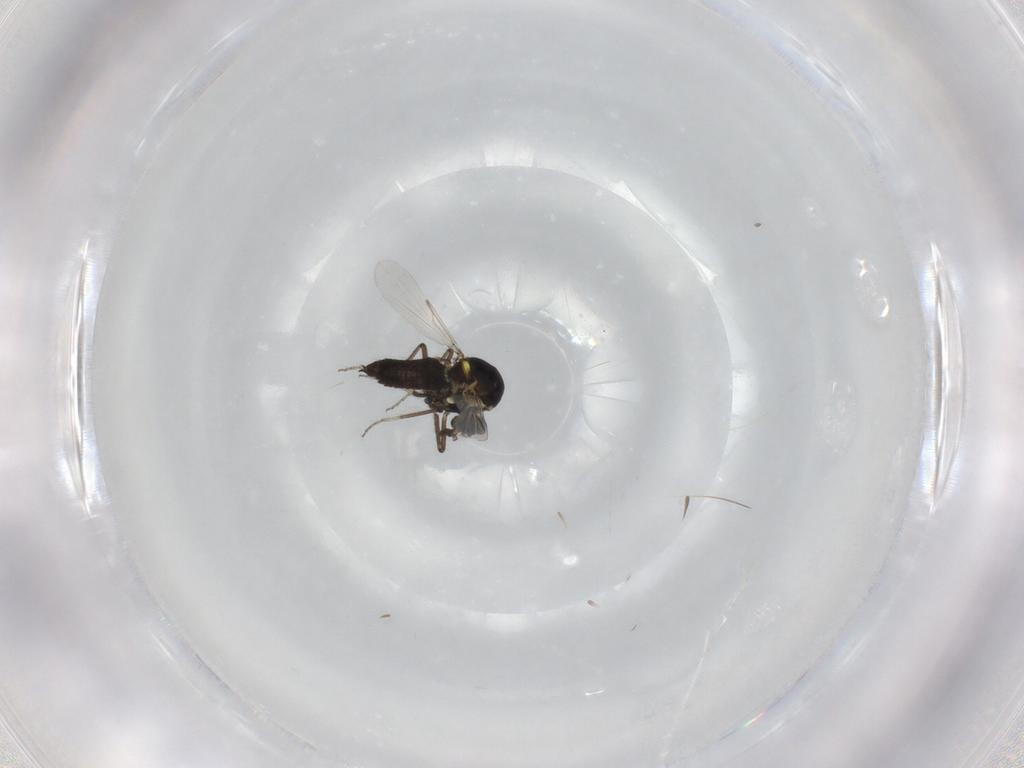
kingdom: Animalia
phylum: Arthropoda
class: Insecta
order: Diptera
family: Ceratopogonidae
